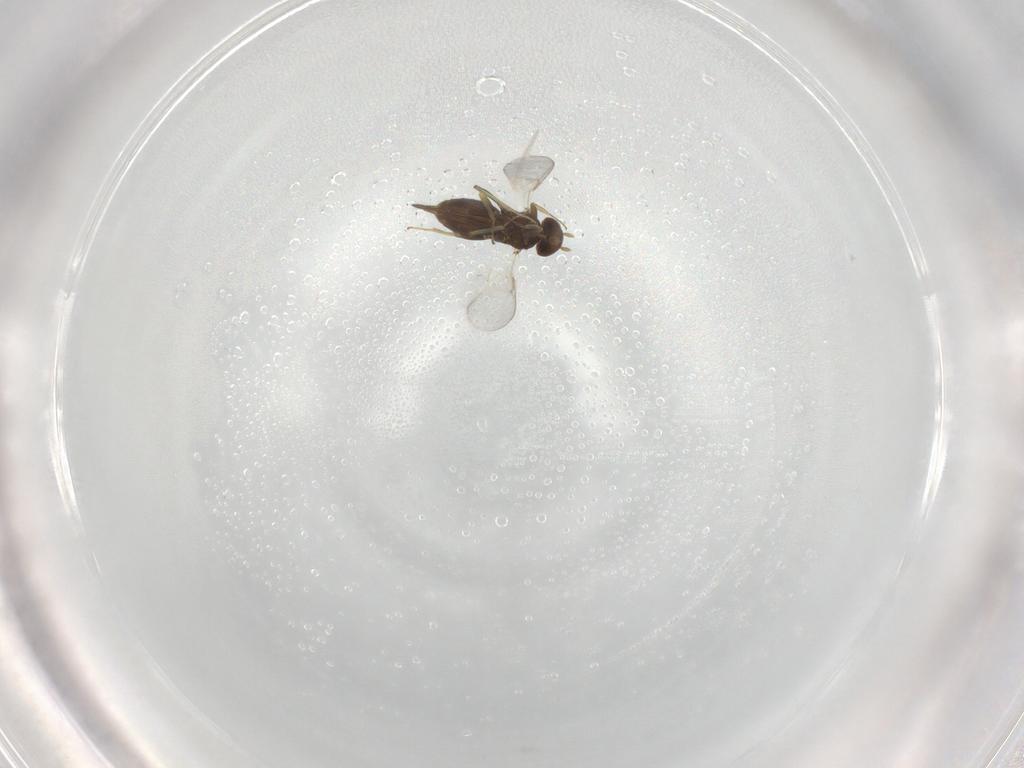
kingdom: Animalia
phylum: Arthropoda
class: Insecta
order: Hymenoptera
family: Aphelinidae
